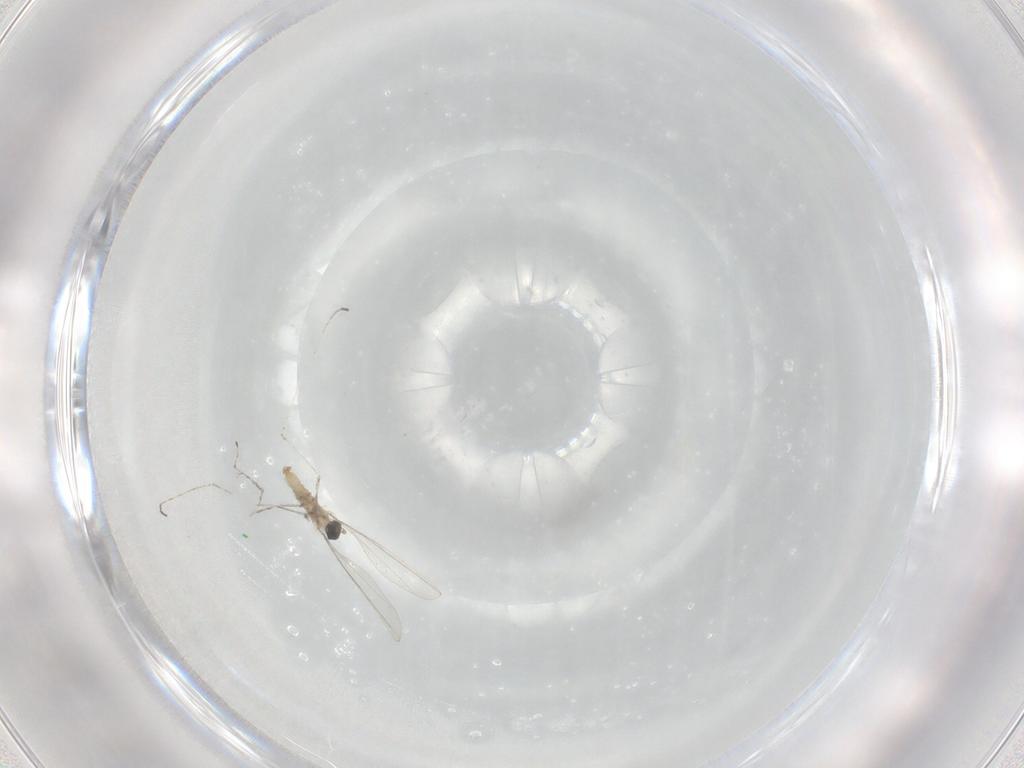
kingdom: Animalia
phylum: Arthropoda
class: Insecta
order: Diptera
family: Cecidomyiidae
